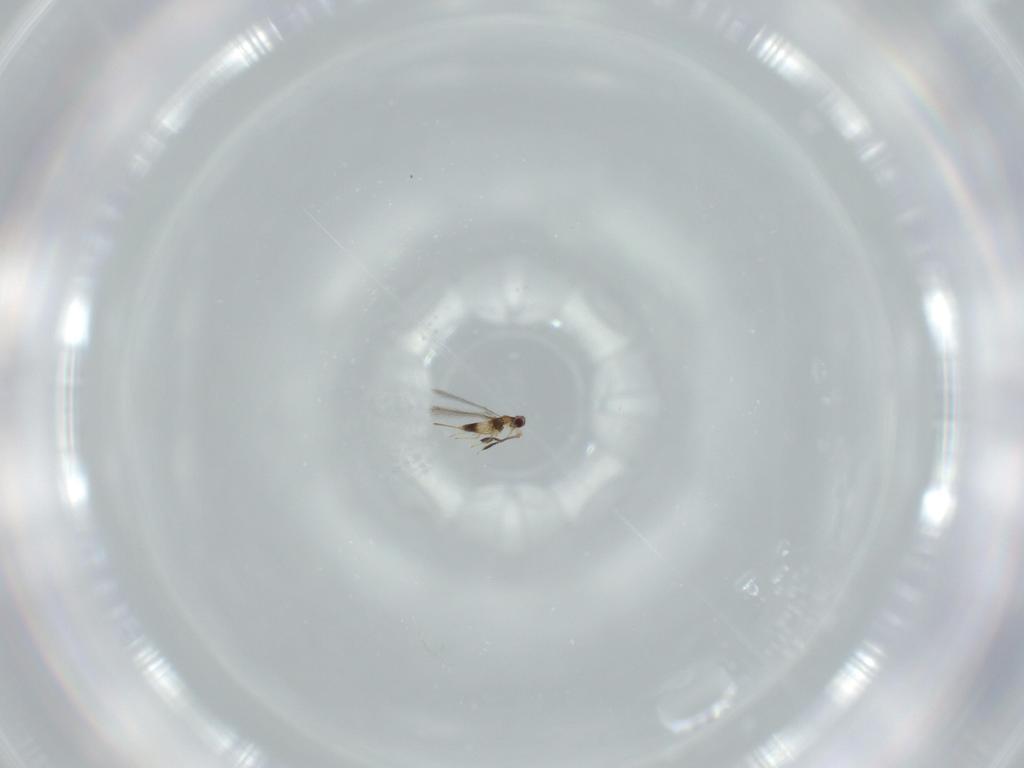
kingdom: Animalia
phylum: Arthropoda
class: Insecta
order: Hymenoptera
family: Mymaridae
